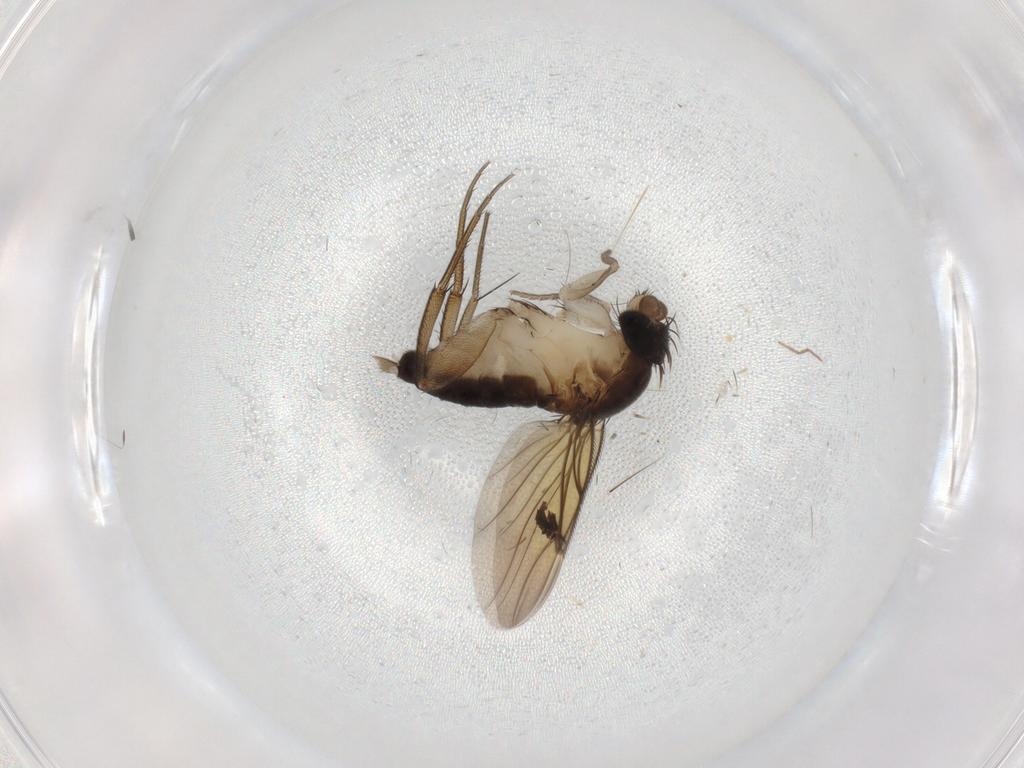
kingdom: Animalia
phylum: Arthropoda
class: Insecta
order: Diptera
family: Ceratopogonidae
